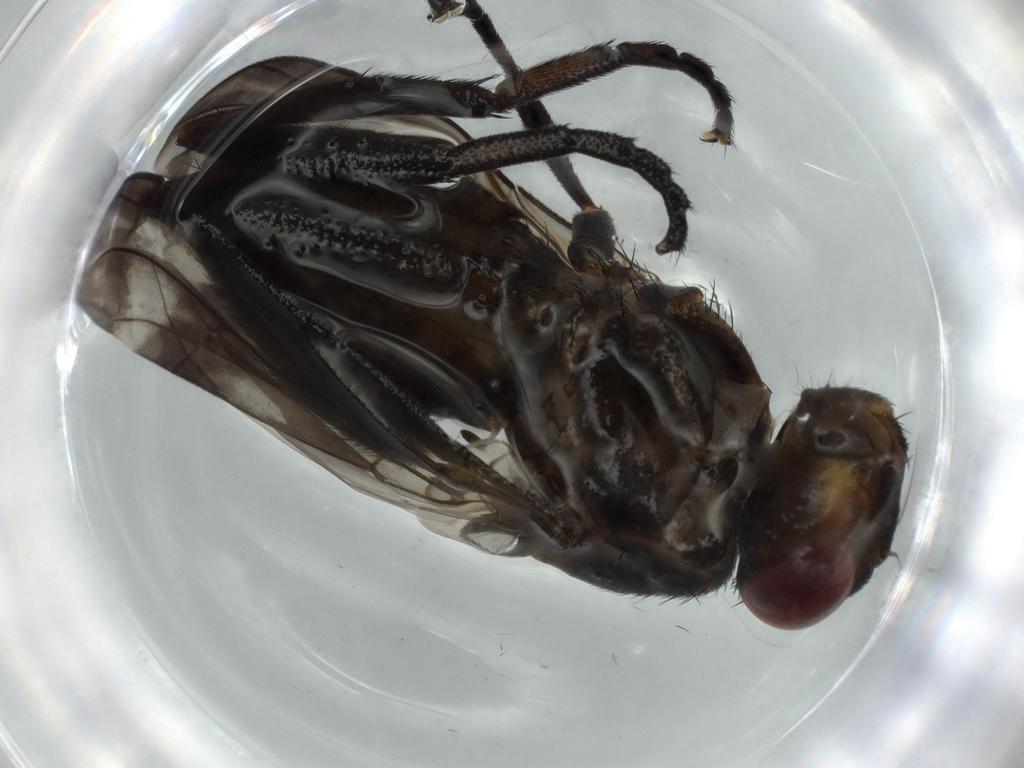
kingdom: Animalia
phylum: Arthropoda
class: Insecta
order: Diptera
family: Calliphoridae
